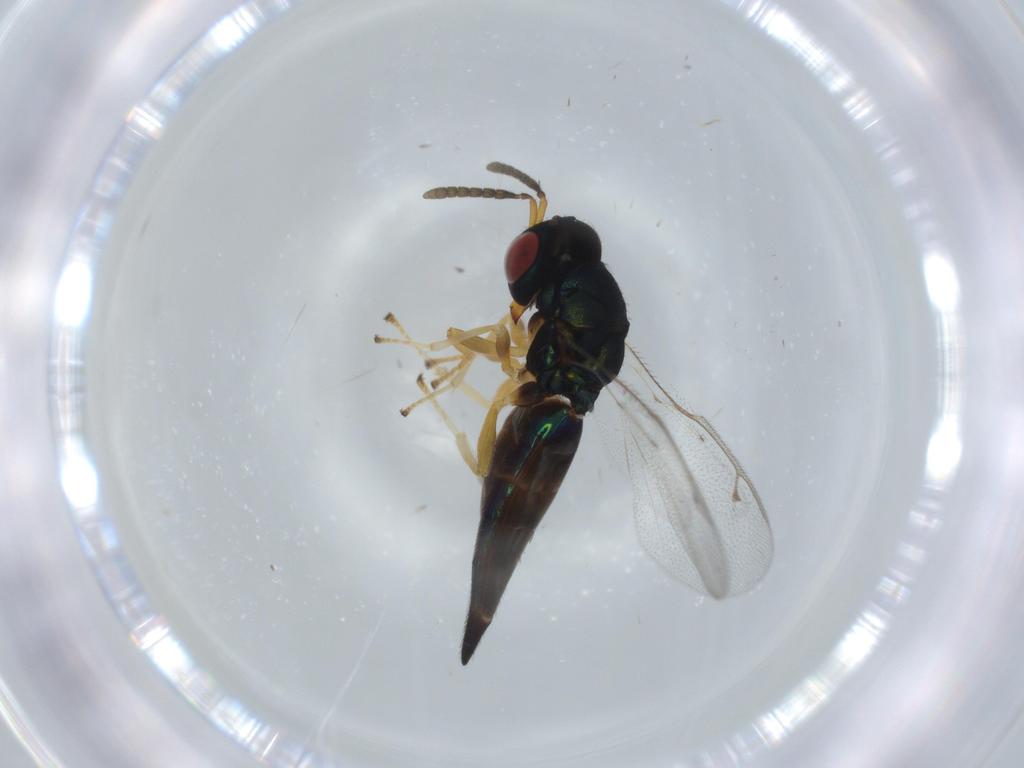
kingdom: Animalia
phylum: Arthropoda
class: Insecta
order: Hymenoptera
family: Pteromalidae
